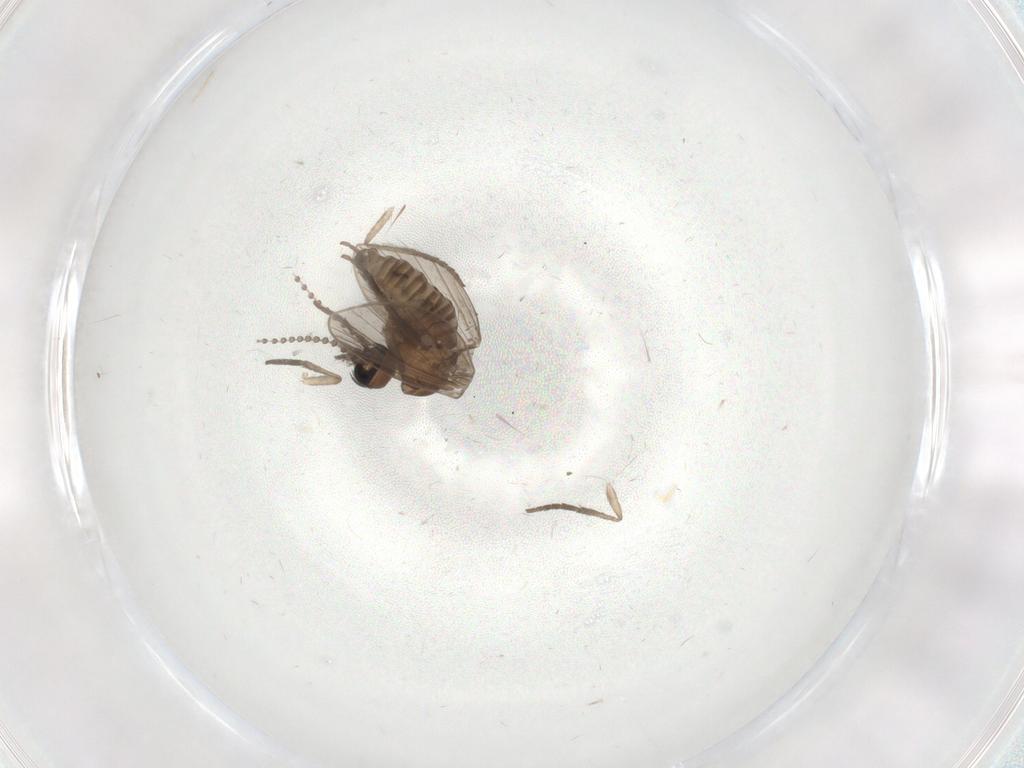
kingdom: Animalia
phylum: Arthropoda
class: Insecta
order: Diptera
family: Psychodidae
